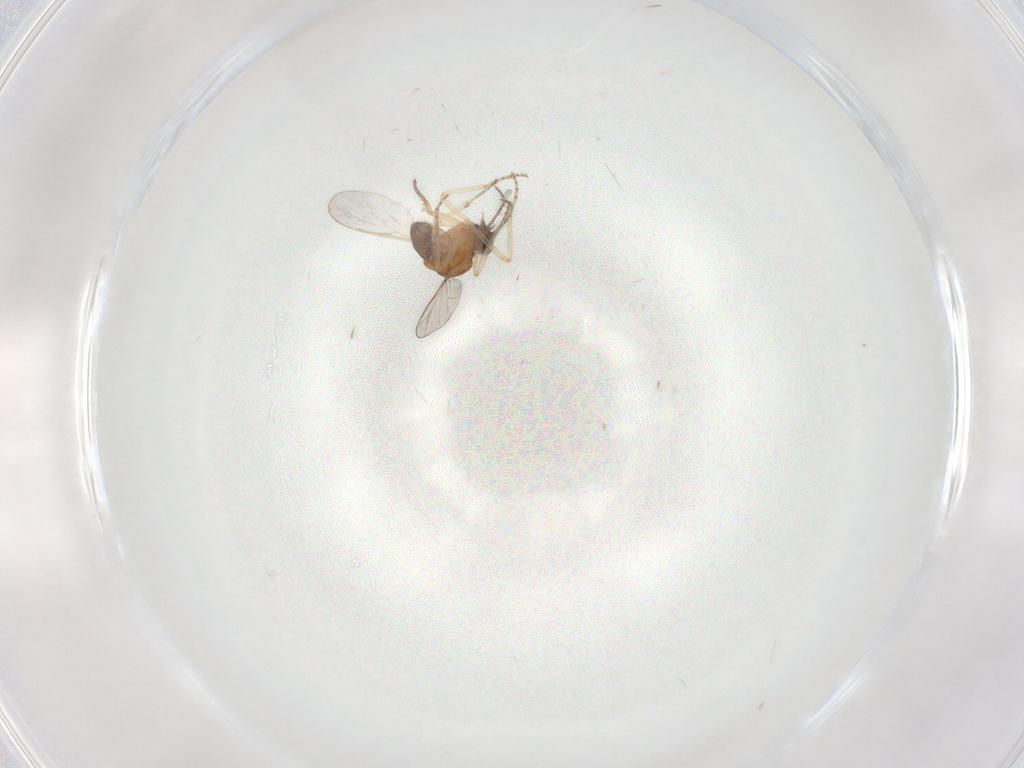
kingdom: Animalia
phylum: Arthropoda
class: Insecta
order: Diptera
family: Ceratopogonidae
